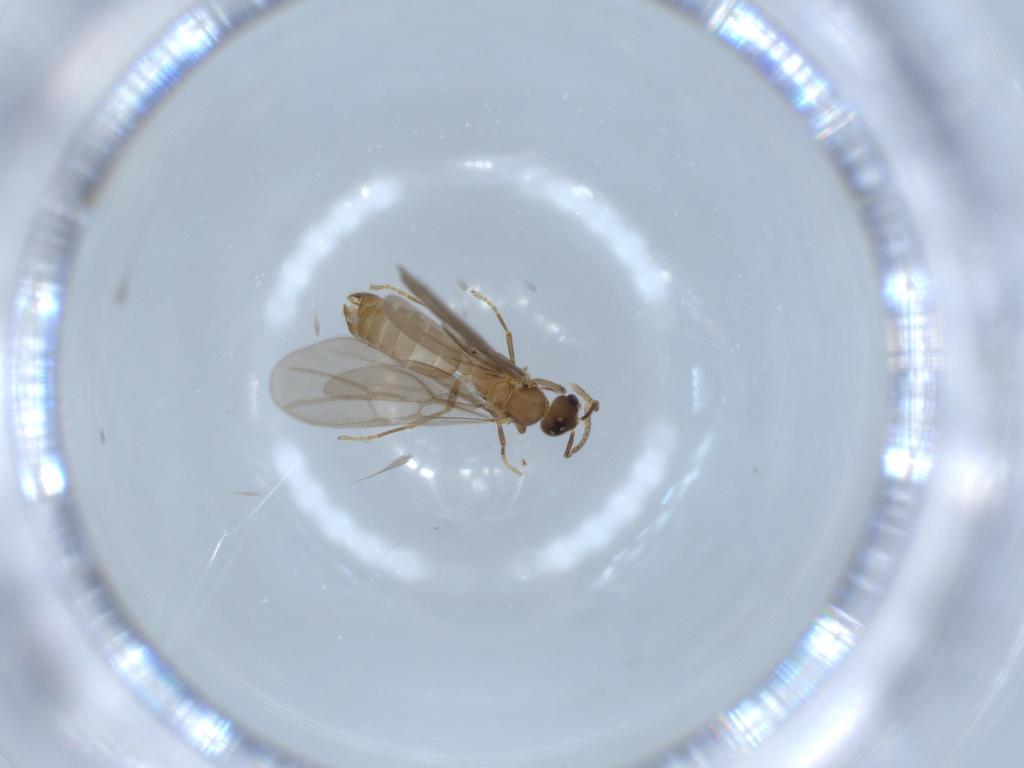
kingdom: Animalia
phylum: Arthropoda
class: Insecta
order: Hymenoptera
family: Formicidae
